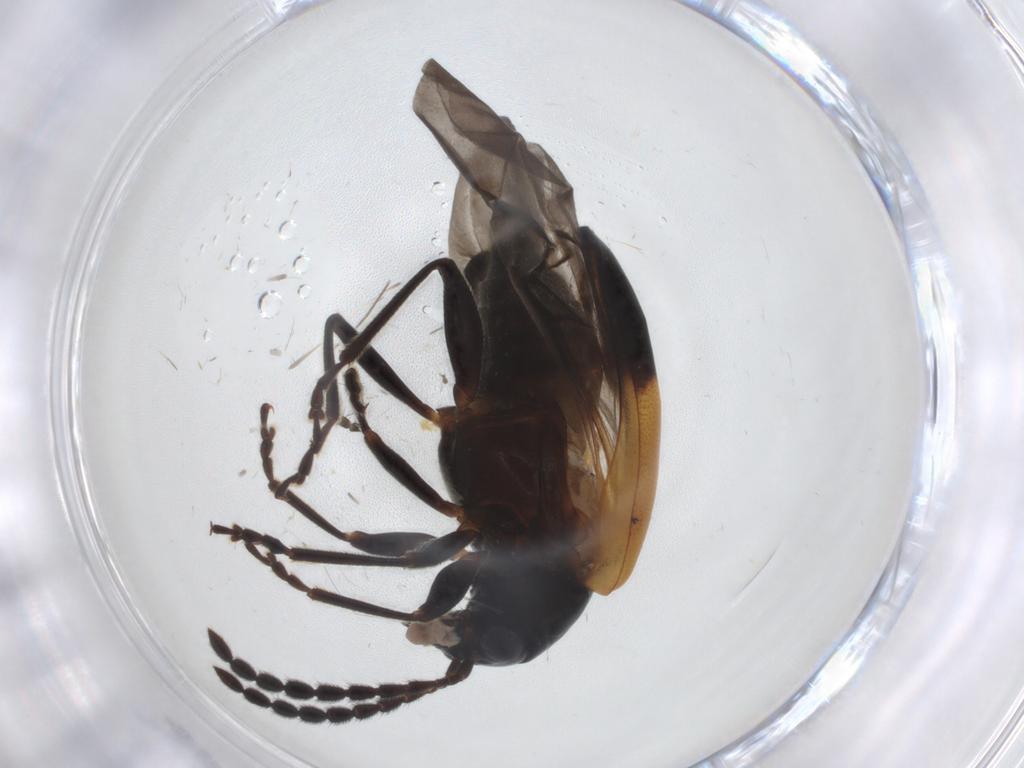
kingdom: Animalia
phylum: Arthropoda
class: Insecta
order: Coleoptera
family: Chrysomelidae
